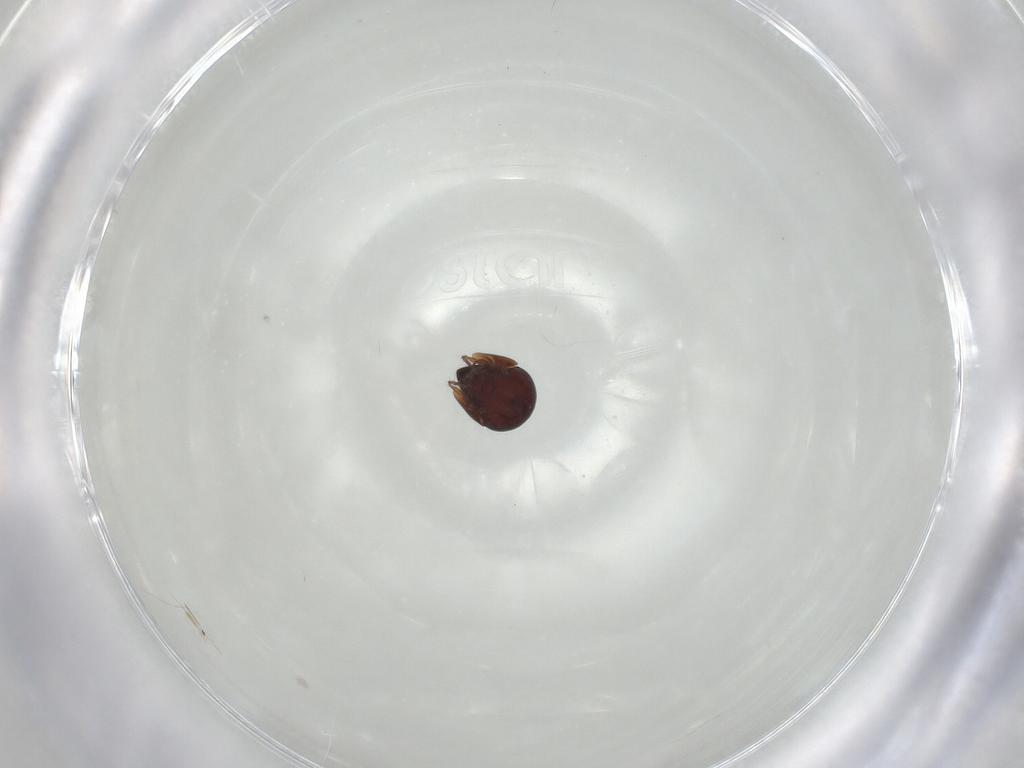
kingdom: Animalia
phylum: Arthropoda
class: Arachnida
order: Sarcoptiformes
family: Galumnidae
